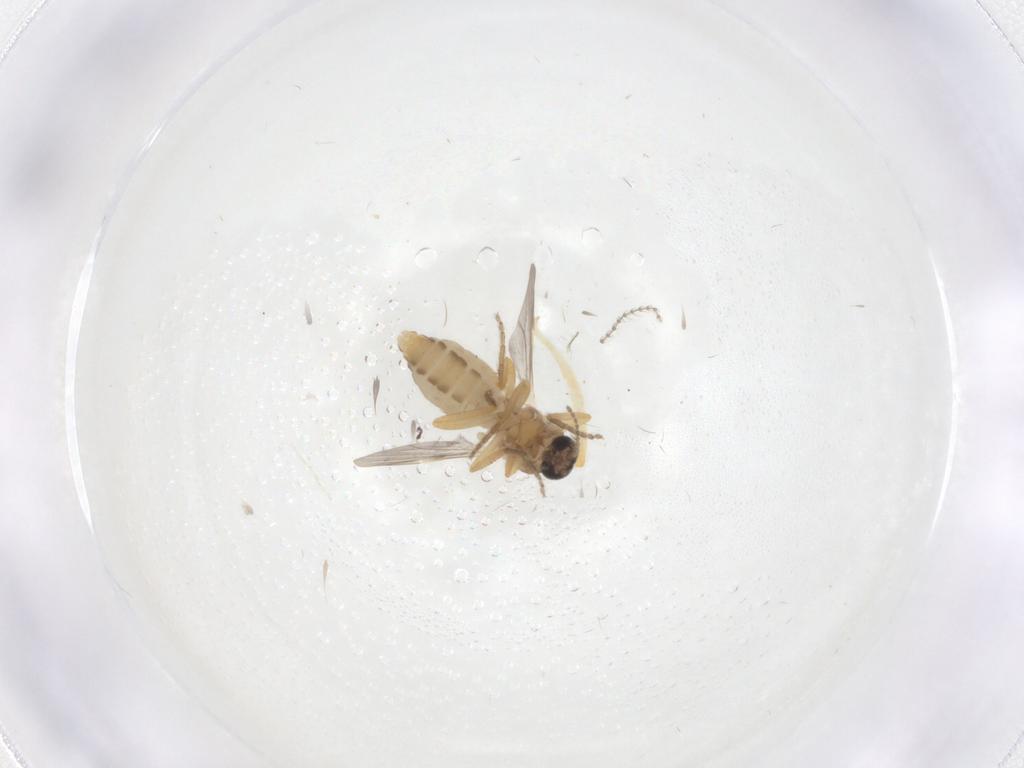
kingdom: Animalia
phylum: Arthropoda
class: Insecta
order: Diptera
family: Ceratopogonidae
